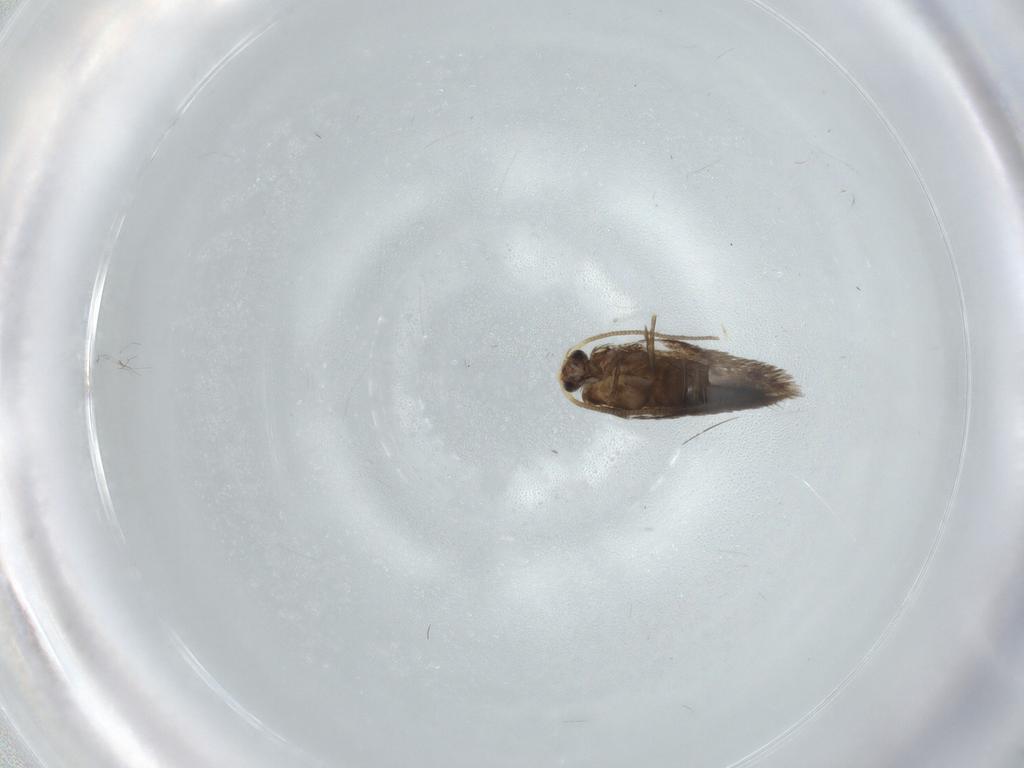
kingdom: Animalia
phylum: Arthropoda
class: Insecta
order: Lepidoptera
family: Nepticulidae
